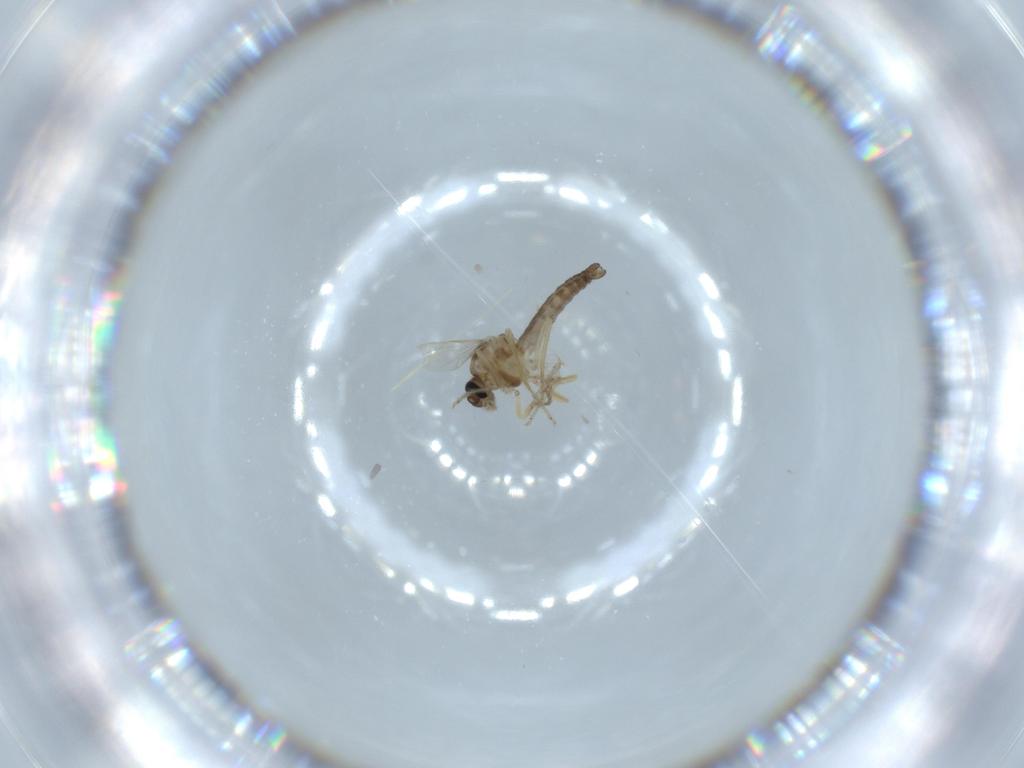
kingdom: Animalia
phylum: Arthropoda
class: Insecta
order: Diptera
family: Ceratopogonidae
